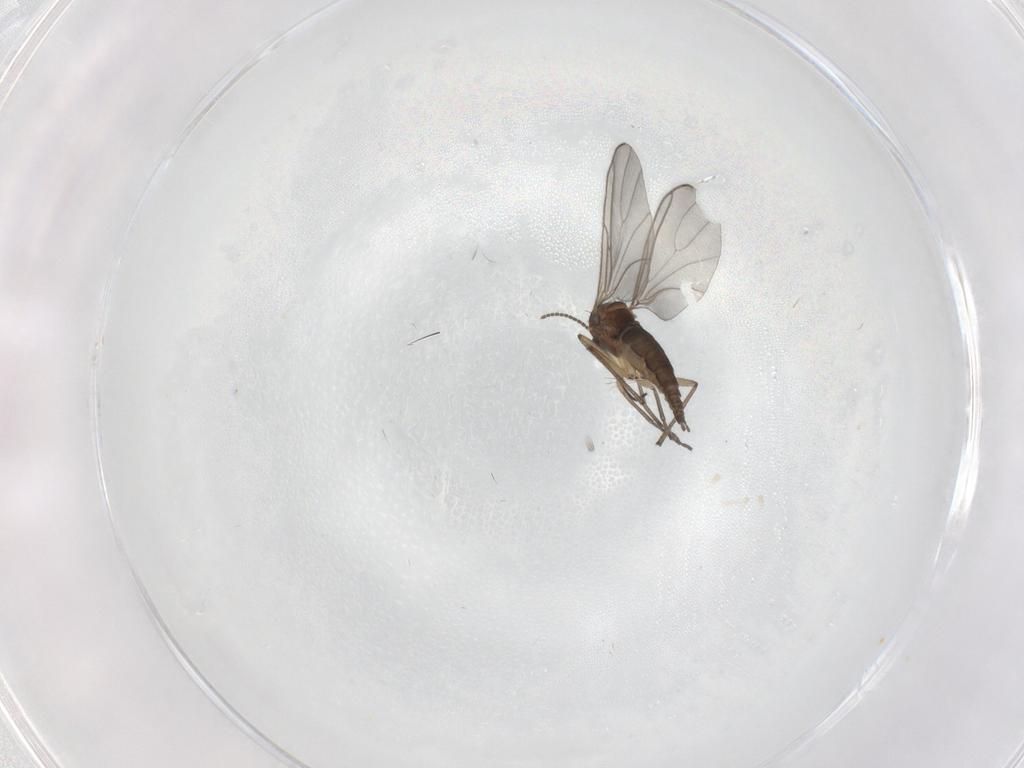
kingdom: Animalia
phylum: Arthropoda
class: Insecta
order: Diptera
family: Sciaridae
